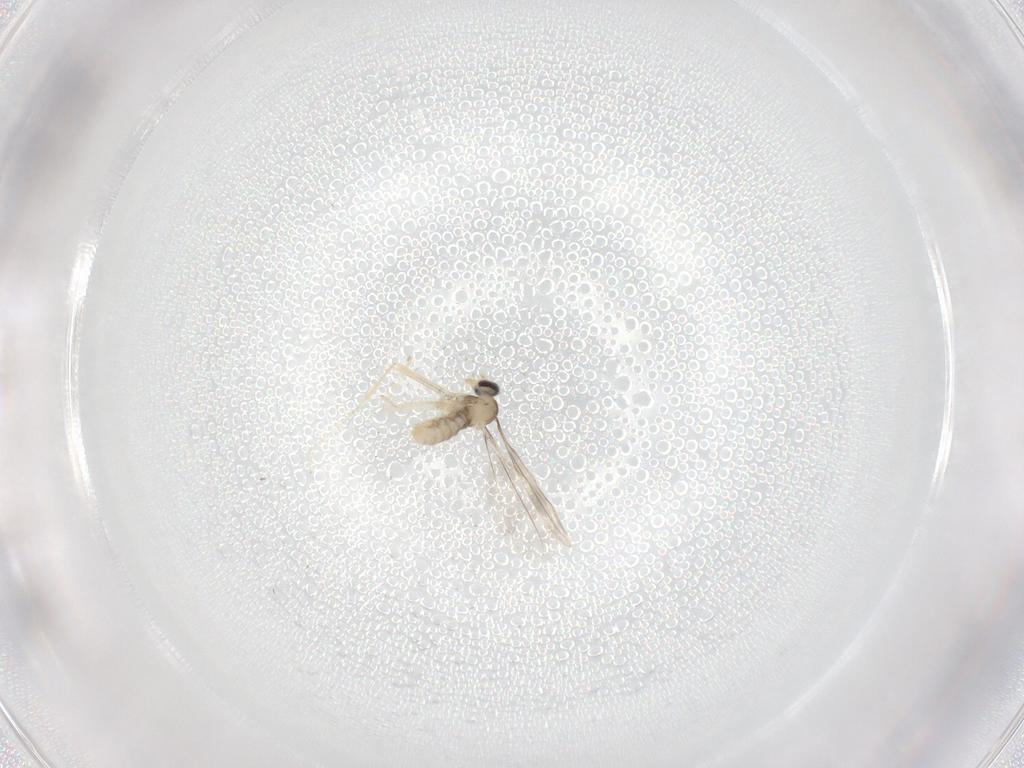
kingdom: Animalia
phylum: Arthropoda
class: Insecta
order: Diptera
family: Cecidomyiidae
